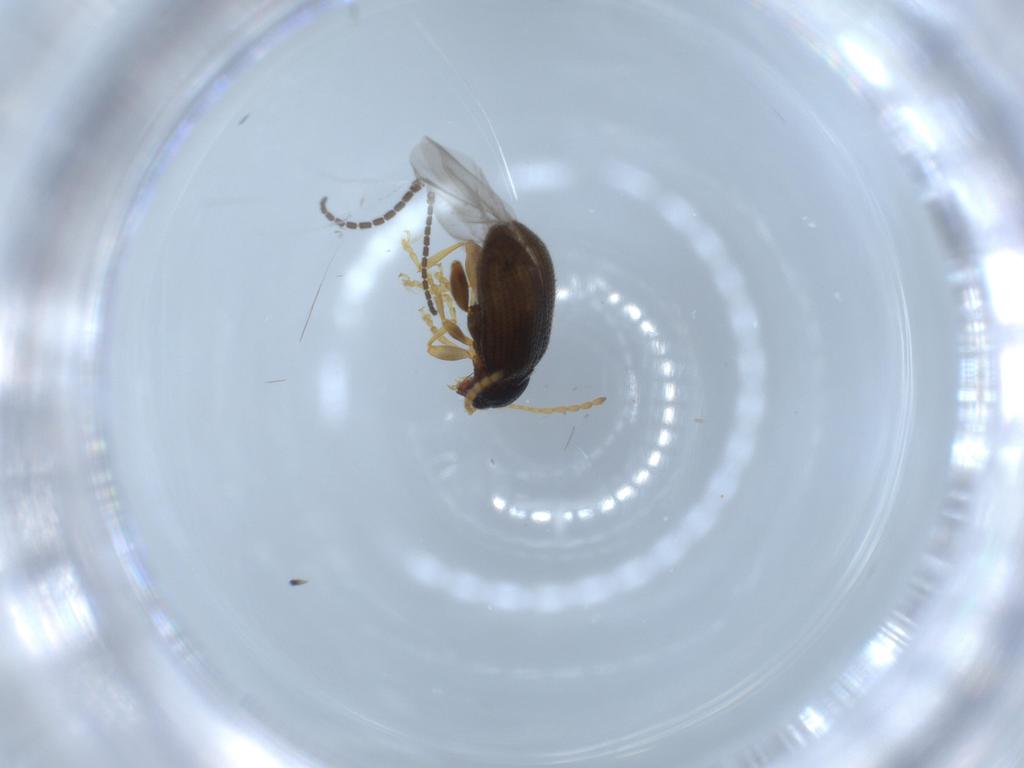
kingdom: Animalia
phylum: Arthropoda
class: Insecta
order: Coleoptera
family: Chrysomelidae
